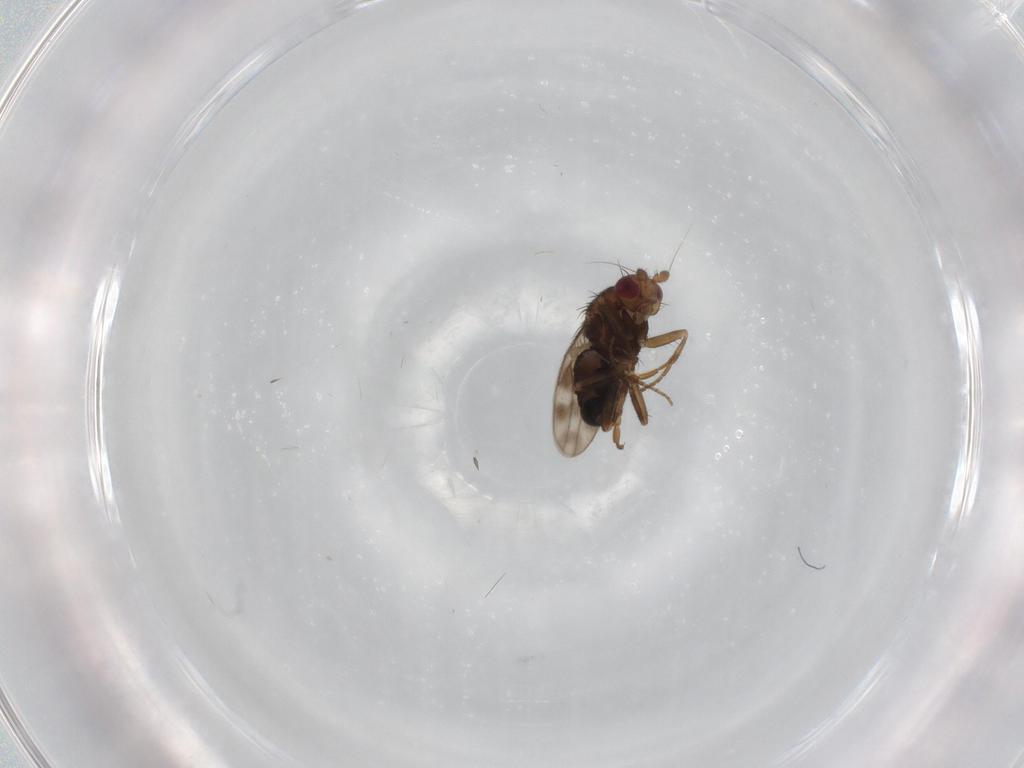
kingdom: Animalia
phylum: Arthropoda
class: Insecta
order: Diptera
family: Sphaeroceridae
